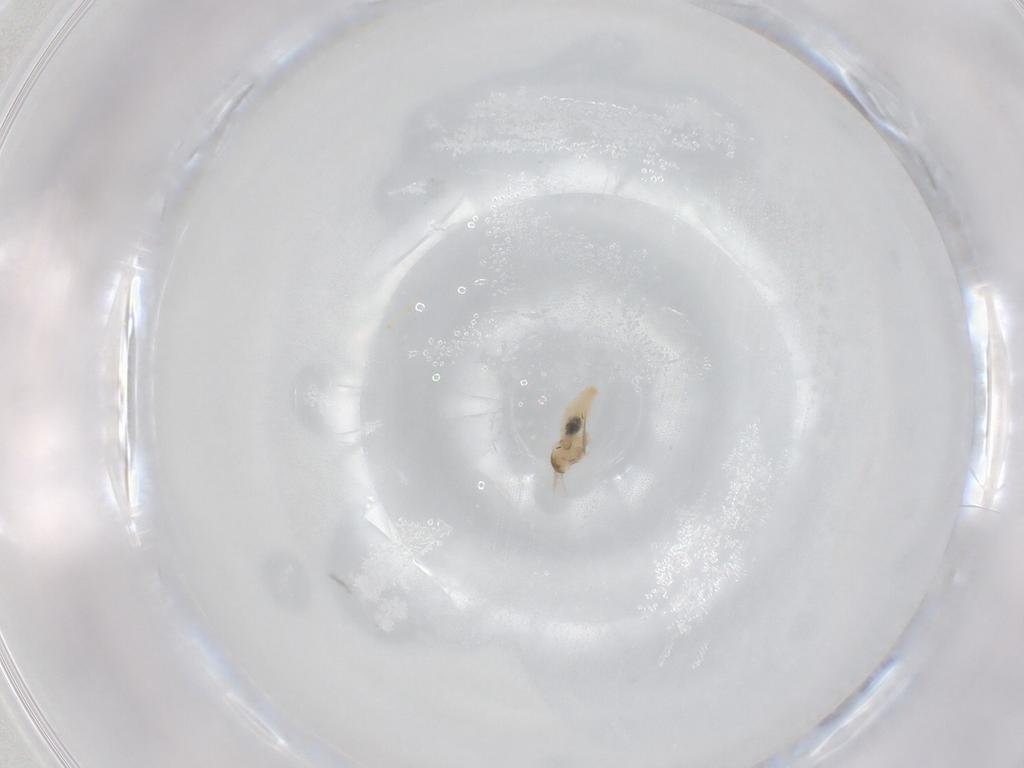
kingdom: Animalia
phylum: Arthropoda
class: Insecta
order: Diptera
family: Cecidomyiidae
